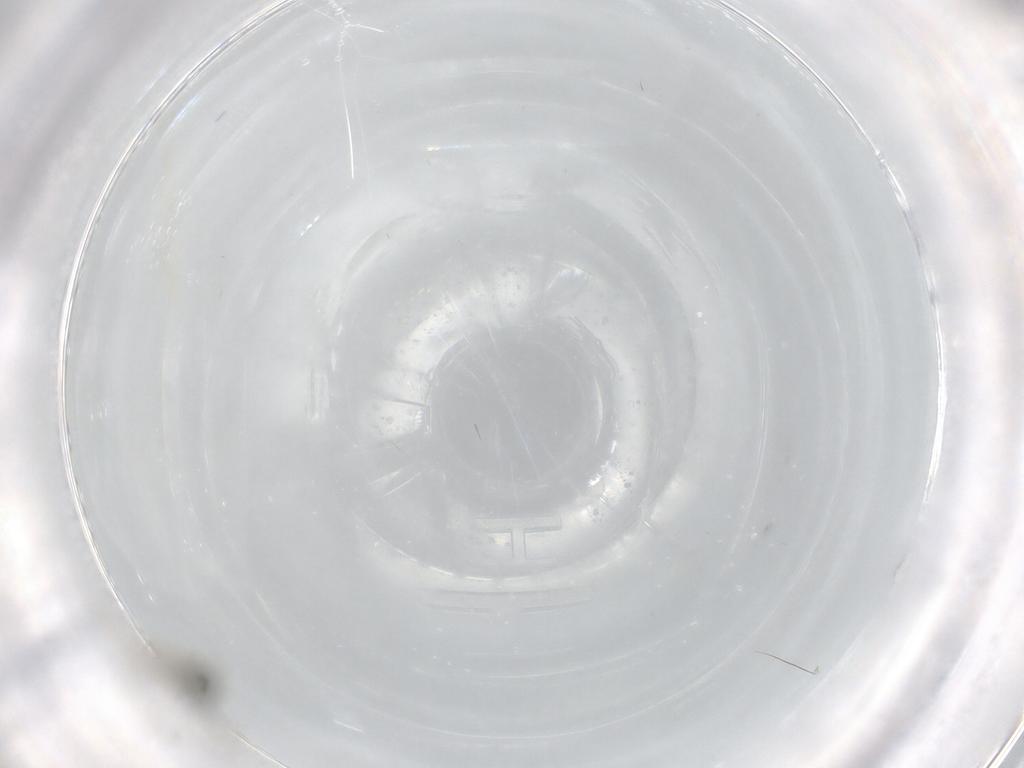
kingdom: Animalia
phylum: Arthropoda
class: Insecta
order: Diptera
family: Cecidomyiidae
